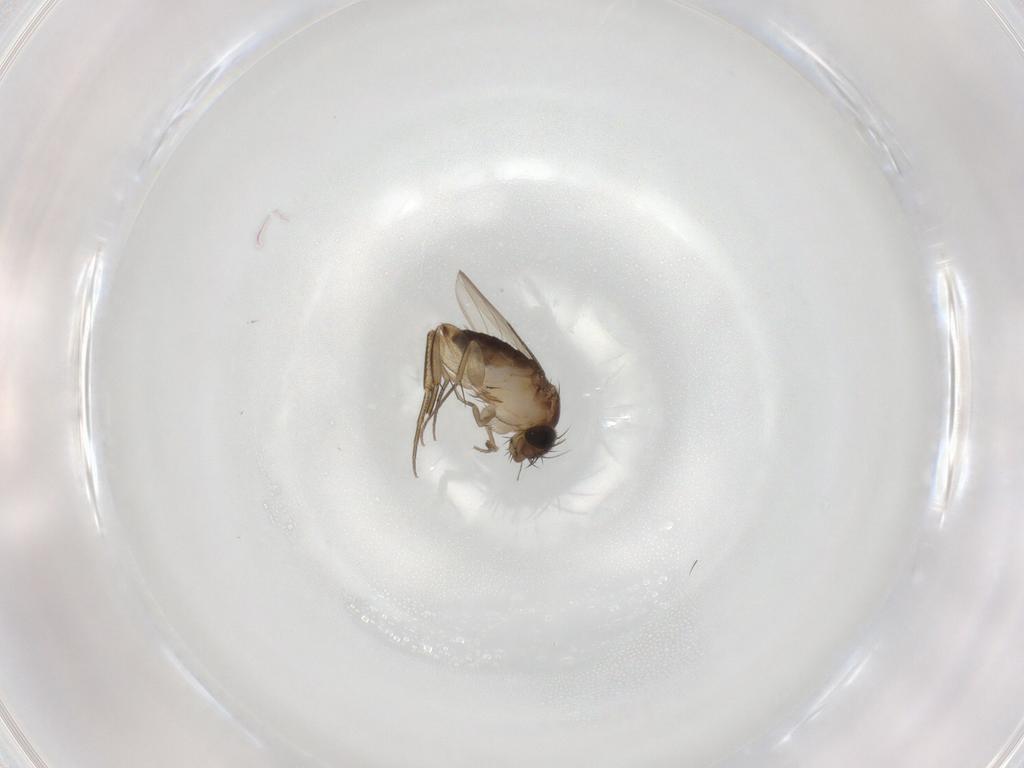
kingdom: Animalia
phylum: Arthropoda
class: Insecta
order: Diptera
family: Phoridae
